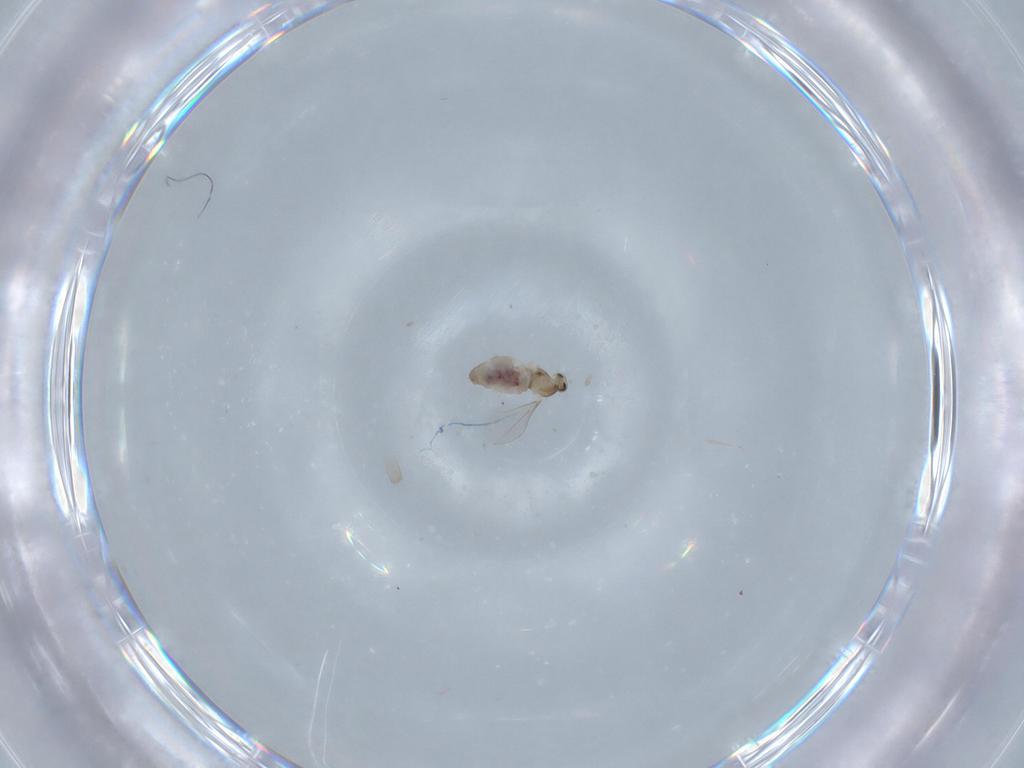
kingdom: Animalia
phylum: Arthropoda
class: Insecta
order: Diptera
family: Cecidomyiidae
